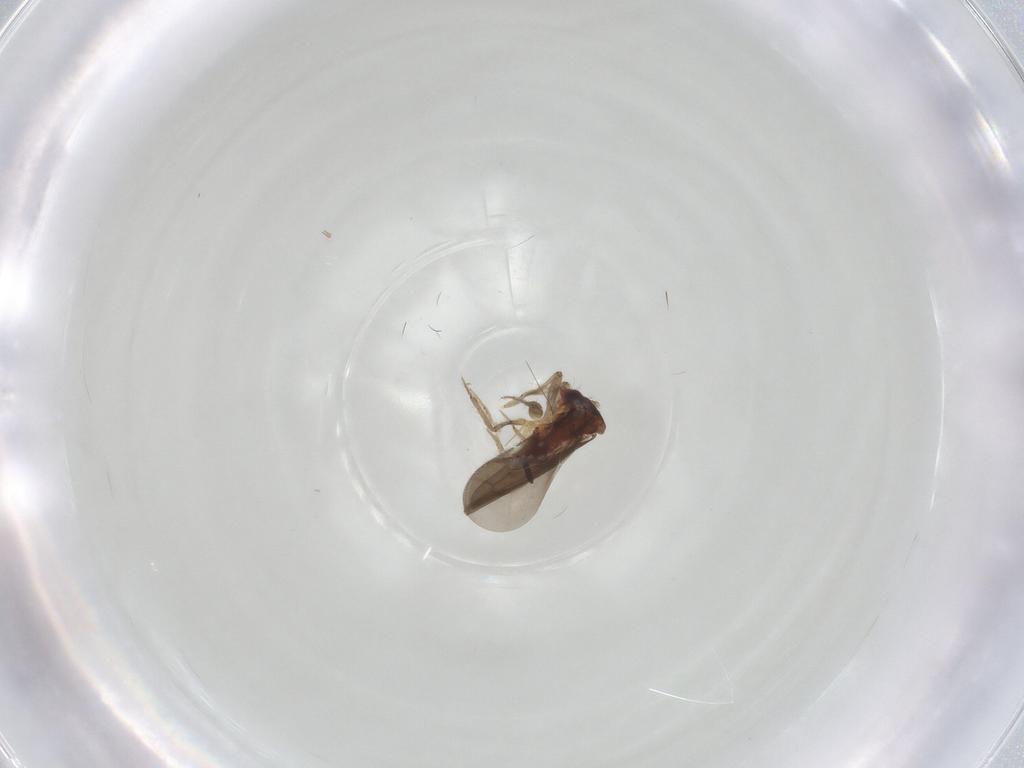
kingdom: Animalia
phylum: Arthropoda
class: Insecta
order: Hemiptera
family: Ceratocombidae
